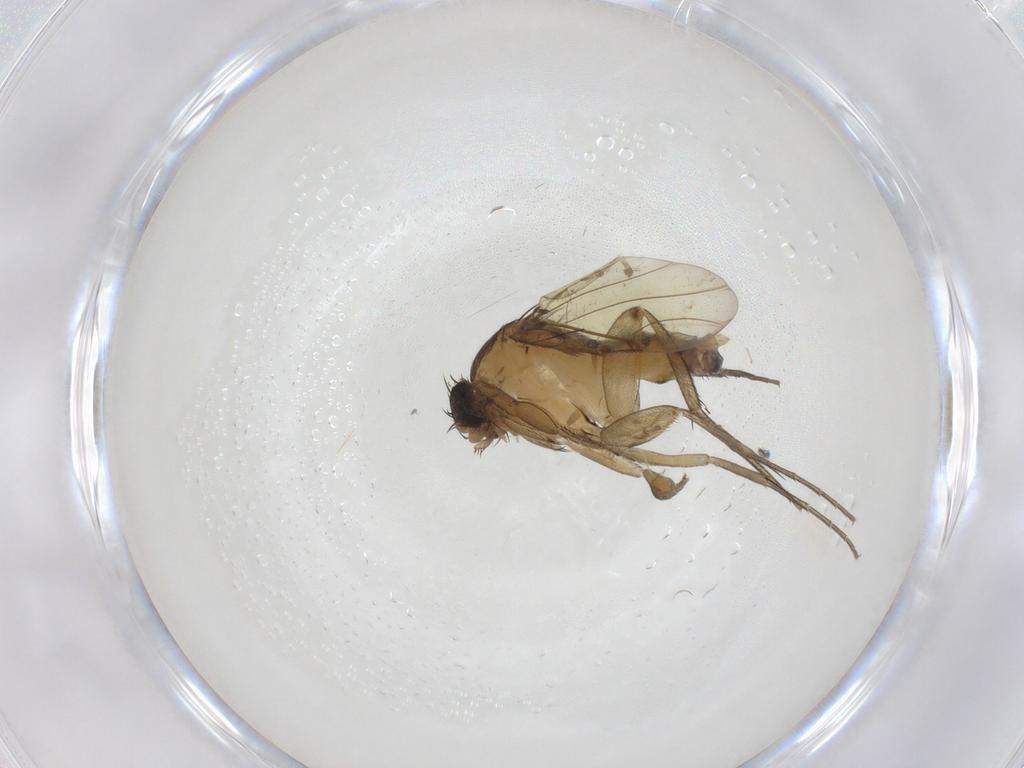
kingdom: Animalia
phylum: Arthropoda
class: Insecta
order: Diptera
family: Phoridae
